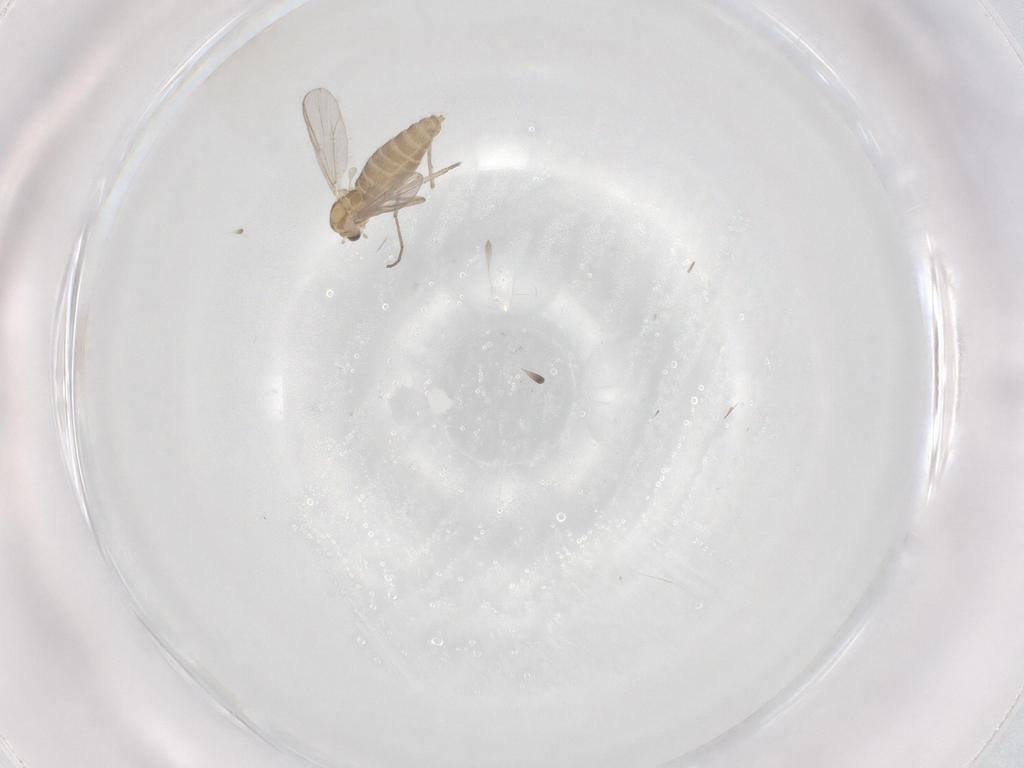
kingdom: Animalia
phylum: Arthropoda
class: Insecta
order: Diptera
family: Chironomidae
